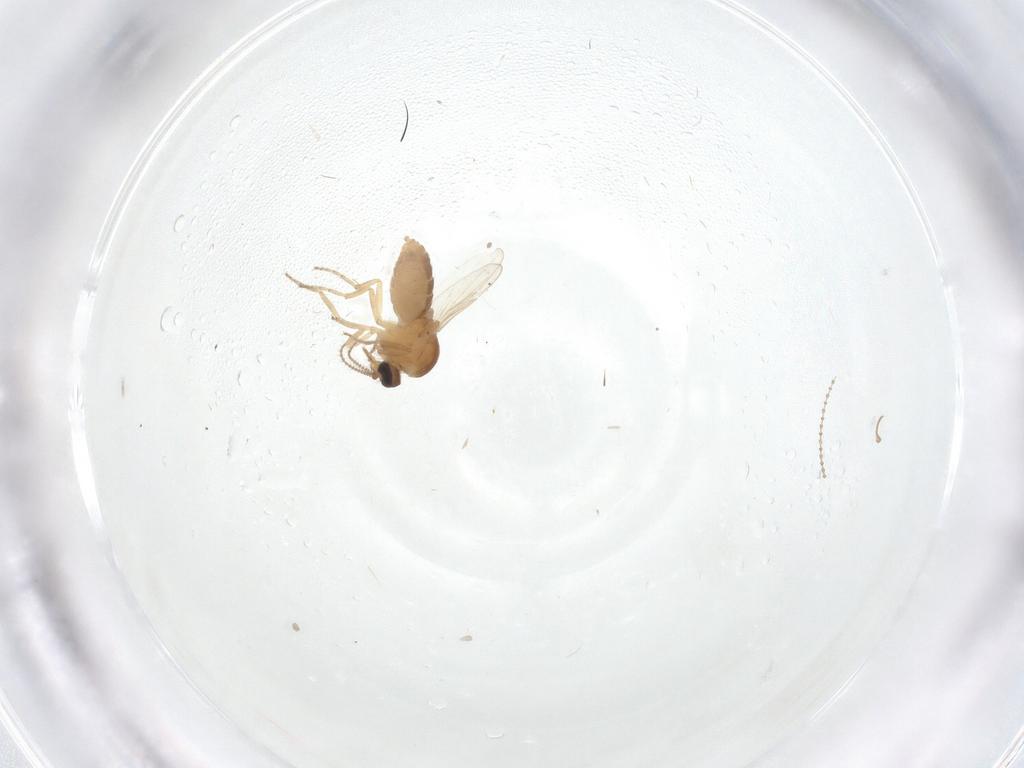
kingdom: Animalia
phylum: Arthropoda
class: Insecta
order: Diptera
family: Ceratopogonidae
